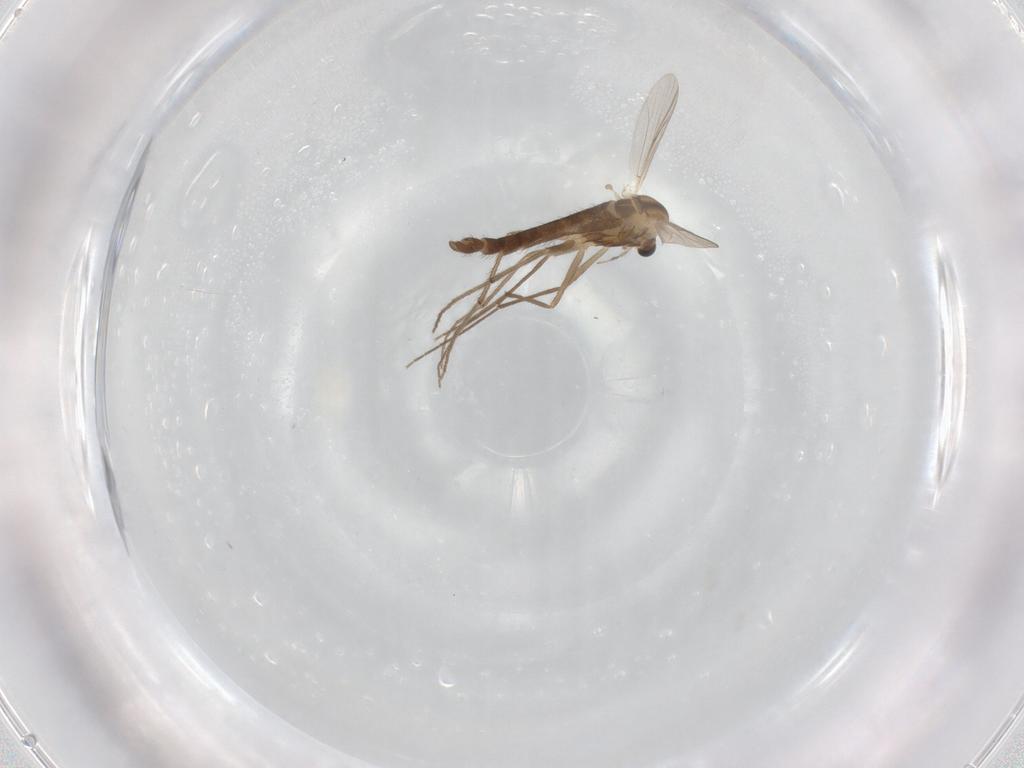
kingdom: Animalia
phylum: Arthropoda
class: Insecta
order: Diptera
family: Chironomidae
